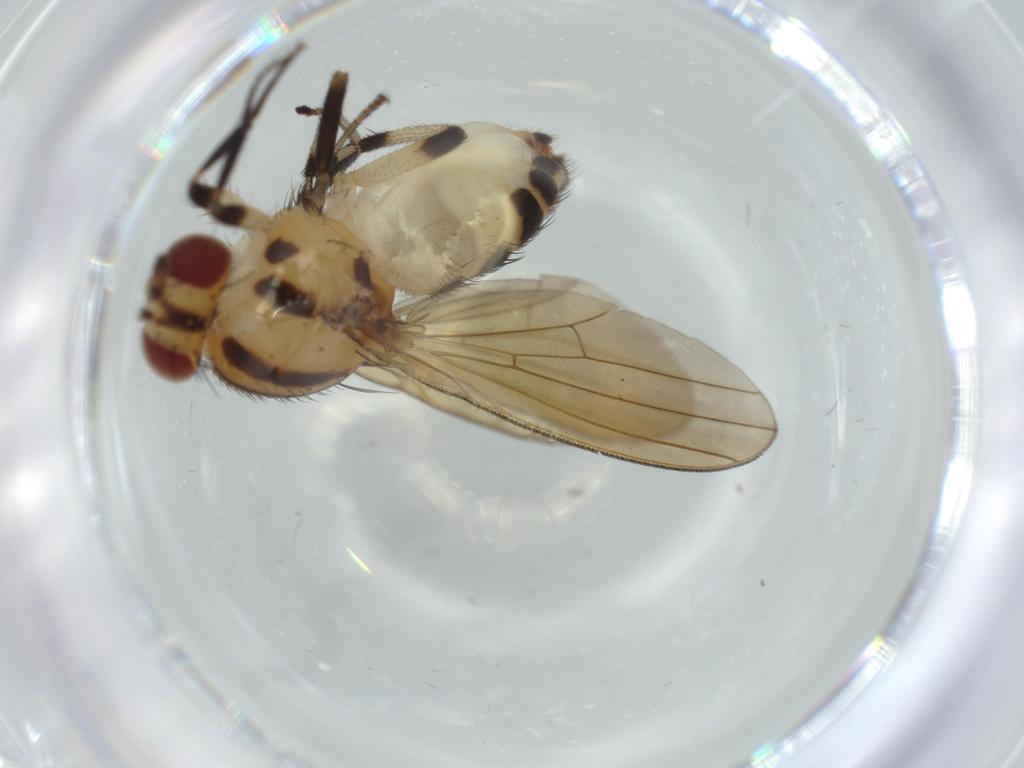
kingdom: Animalia
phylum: Arthropoda
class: Insecta
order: Diptera
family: Lauxaniidae
